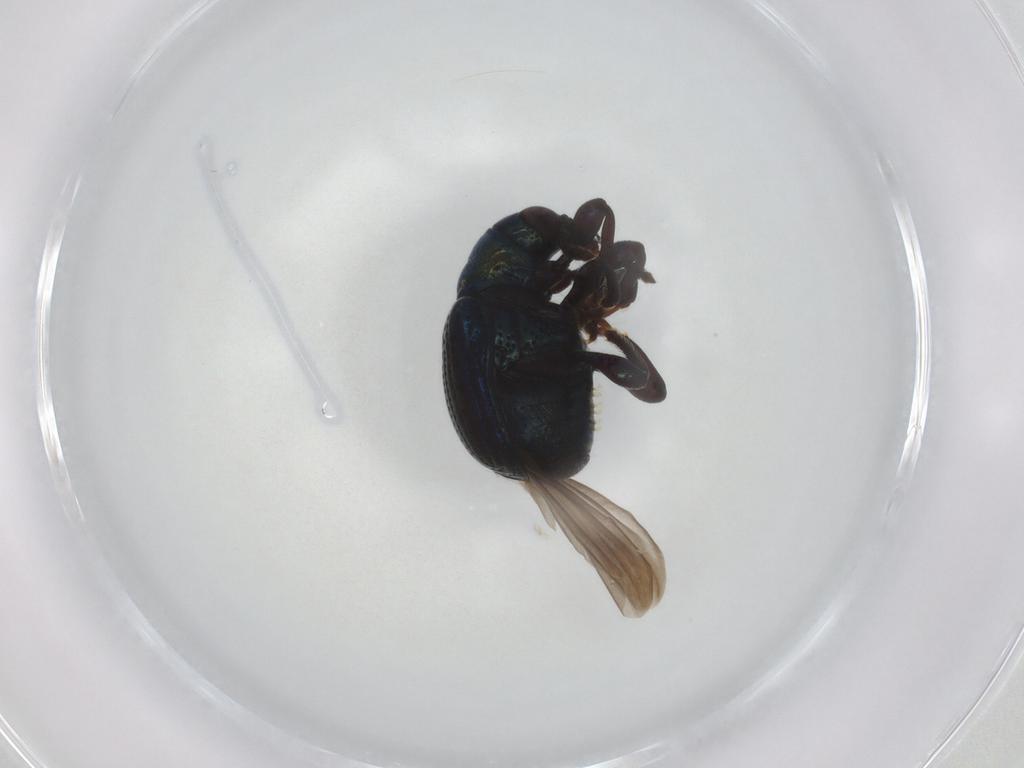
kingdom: Animalia
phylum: Arthropoda
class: Insecta
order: Coleoptera
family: Attelabidae
